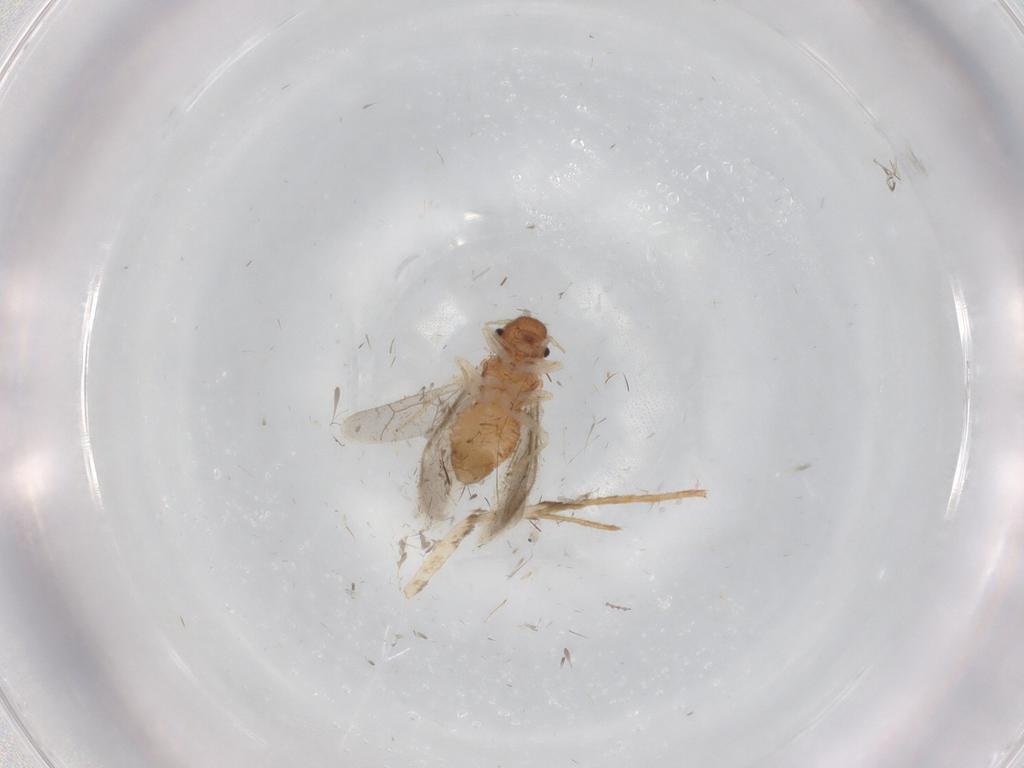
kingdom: Animalia
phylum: Arthropoda
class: Insecta
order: Psocodea
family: Archipsocidae
